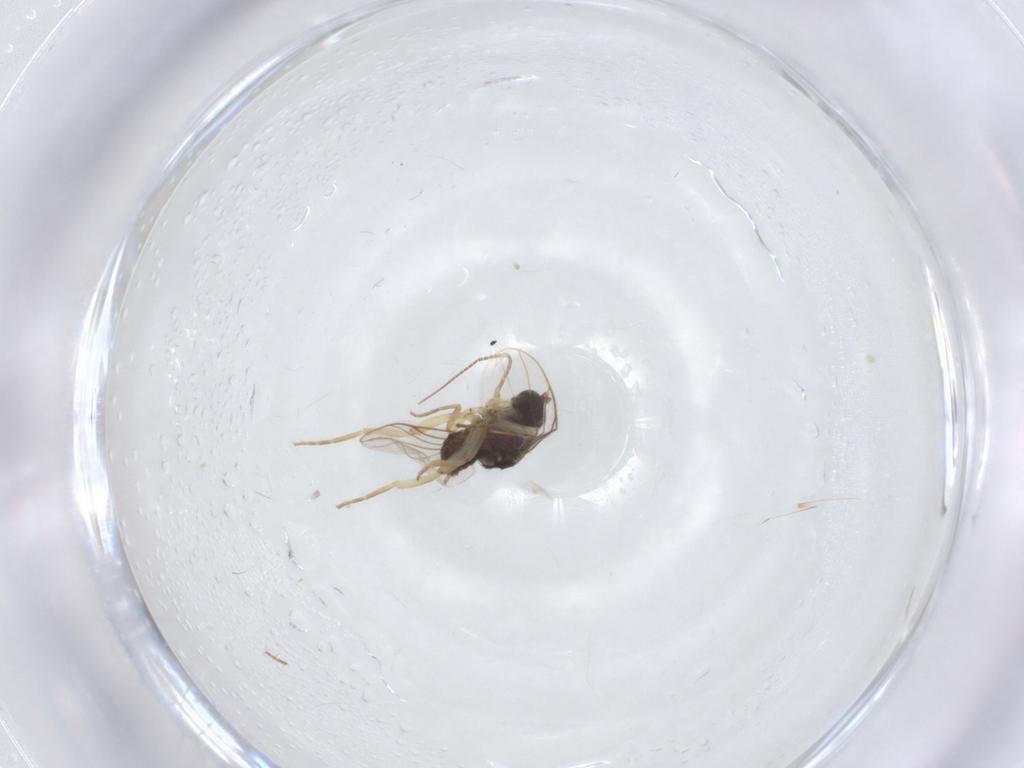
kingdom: Animalia
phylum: Arthropoda
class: Insecta
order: Diptera
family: Hybotidae
